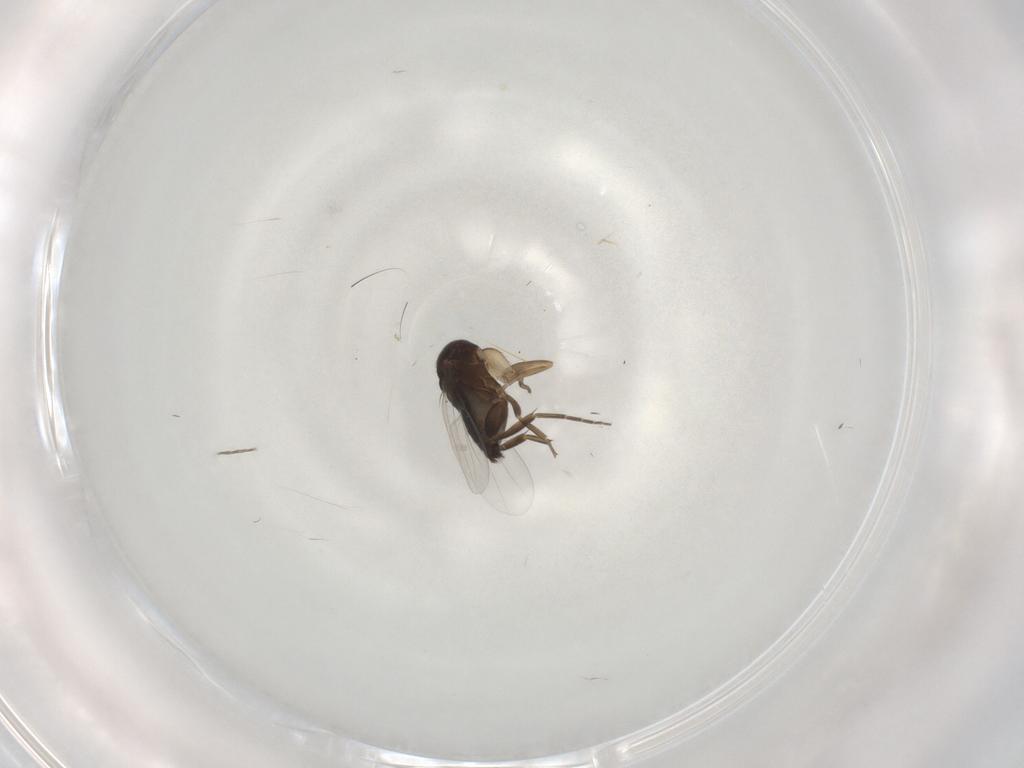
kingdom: Animalia
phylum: Arthropoda
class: Insecta
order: Diptera
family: Phoridae
